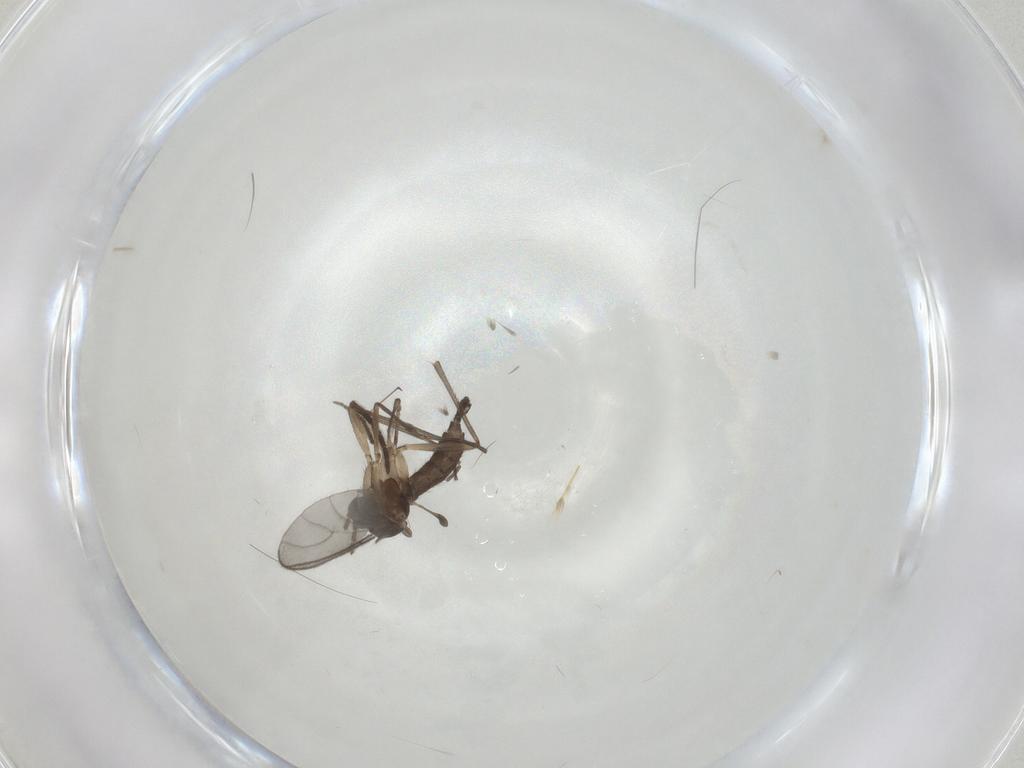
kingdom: Animalia
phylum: Arthropoda
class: Insecta
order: Diptera
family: Sciaridae
